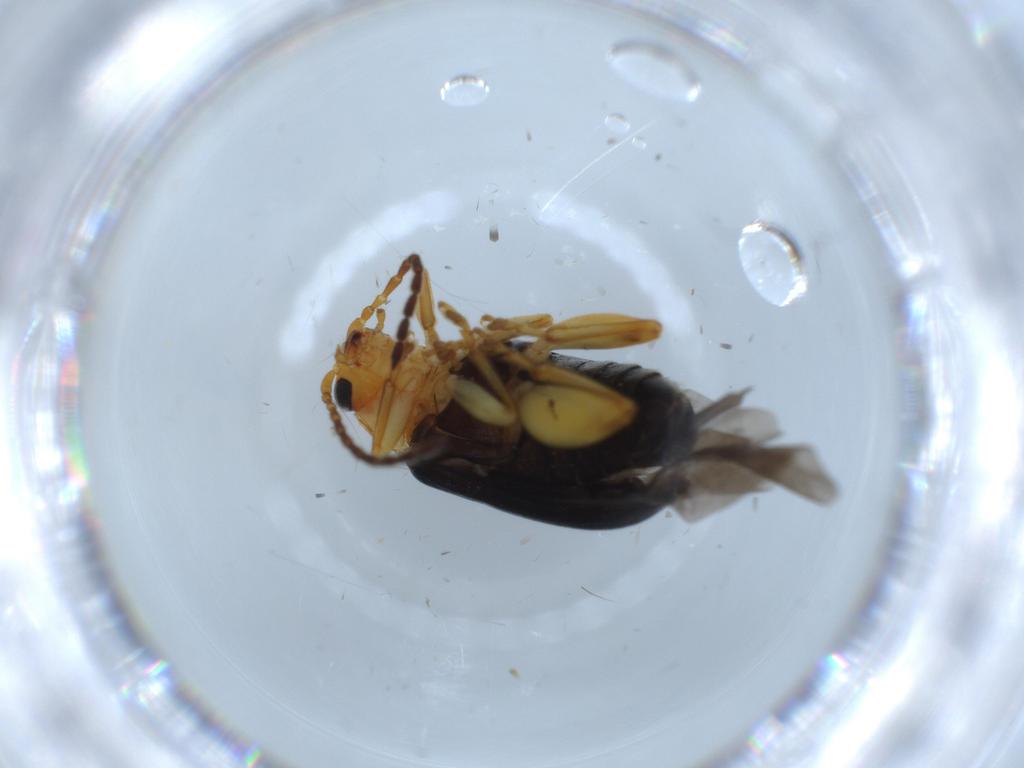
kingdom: Animalia
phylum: Arthropoda
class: Insecta
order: Coleoptera
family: Chrysomelidae
